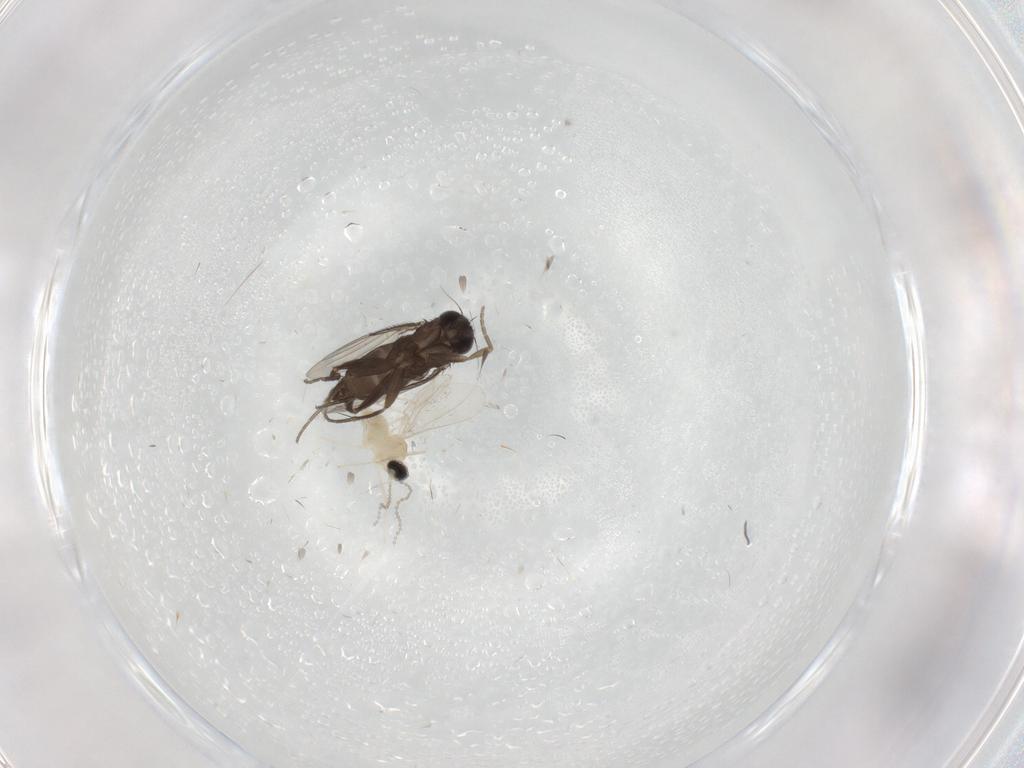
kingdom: Animalia
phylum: Arthropoda
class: Insecta
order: Diptera
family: Phoridae
